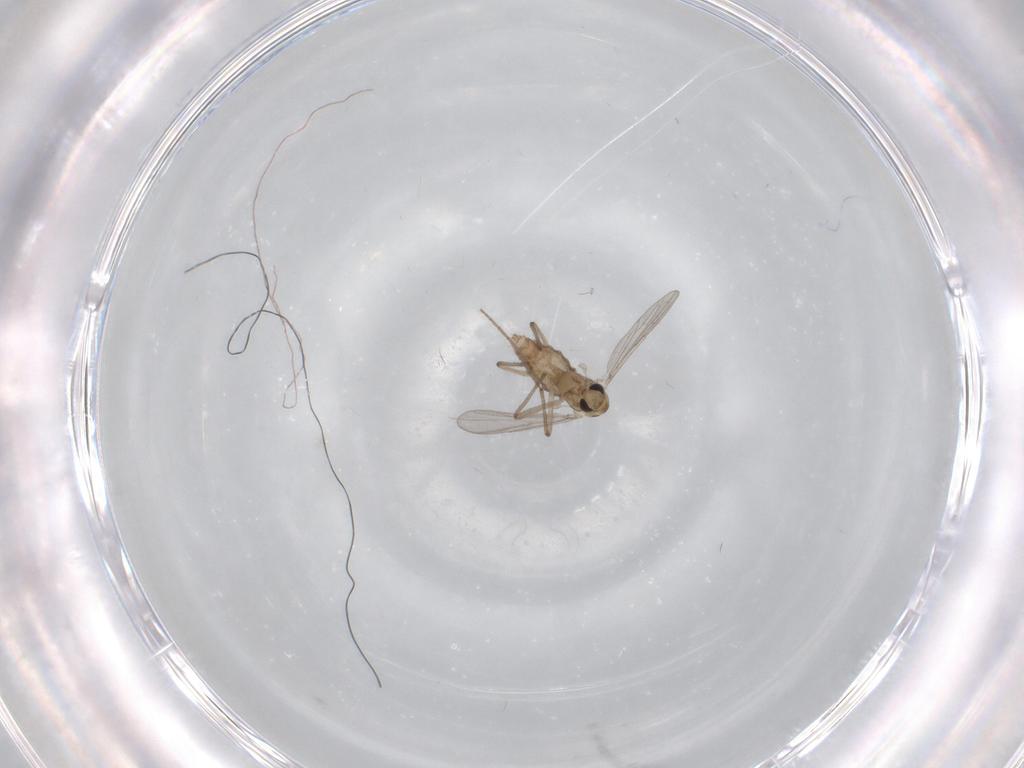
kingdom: Animalia
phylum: Arthropoda
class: Insecta
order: Diptera
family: Chironomidae
